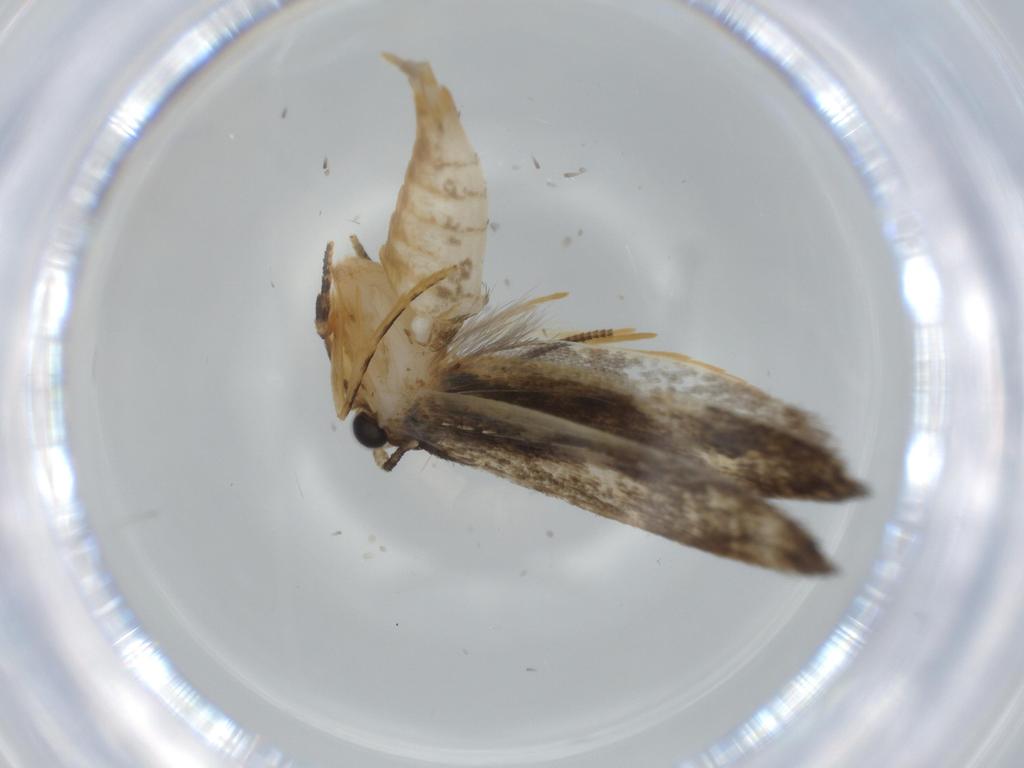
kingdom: Animalia
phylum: Arthropoda
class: Insecta
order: Lepidoptera
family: Tineidae
